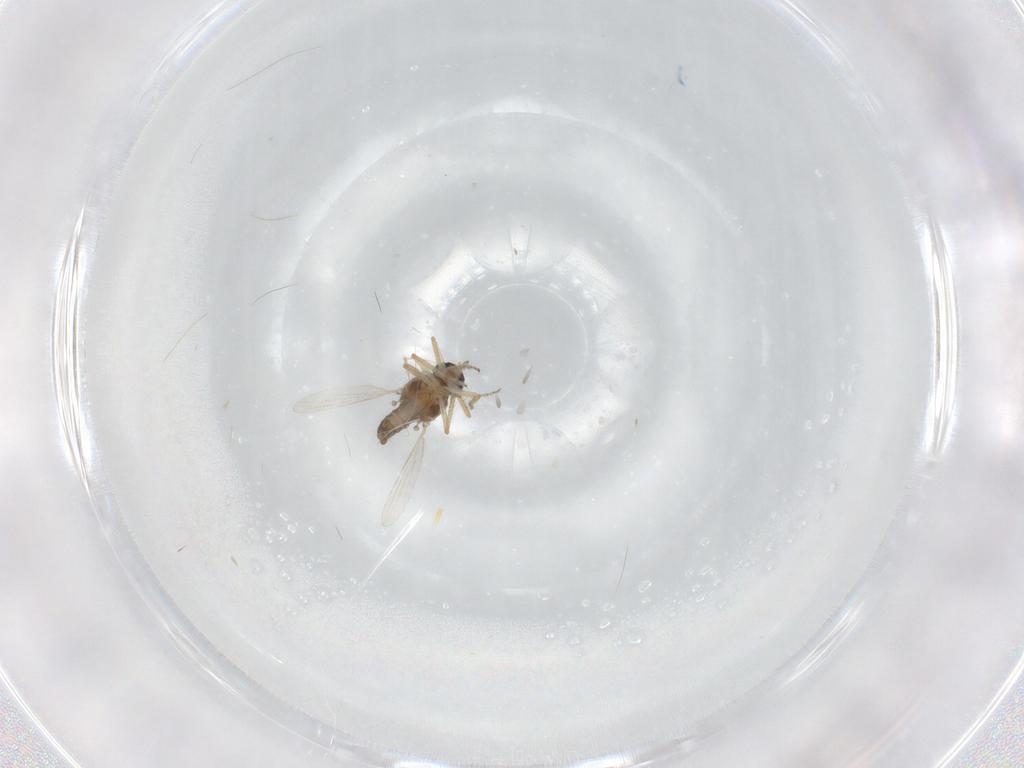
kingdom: Animalia
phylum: Arthropoda
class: Insecta
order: Diptera
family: Ceratopogonidae
